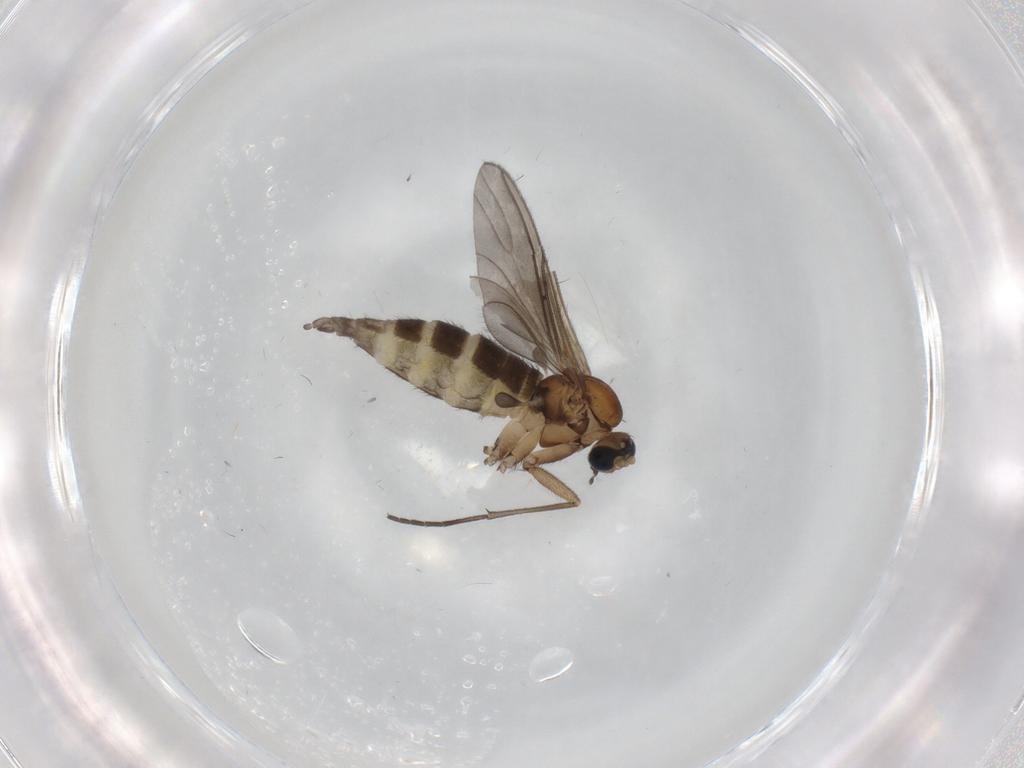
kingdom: Animalia
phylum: Arthropoda
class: Insecta
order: Diptera
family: Sciaridae
